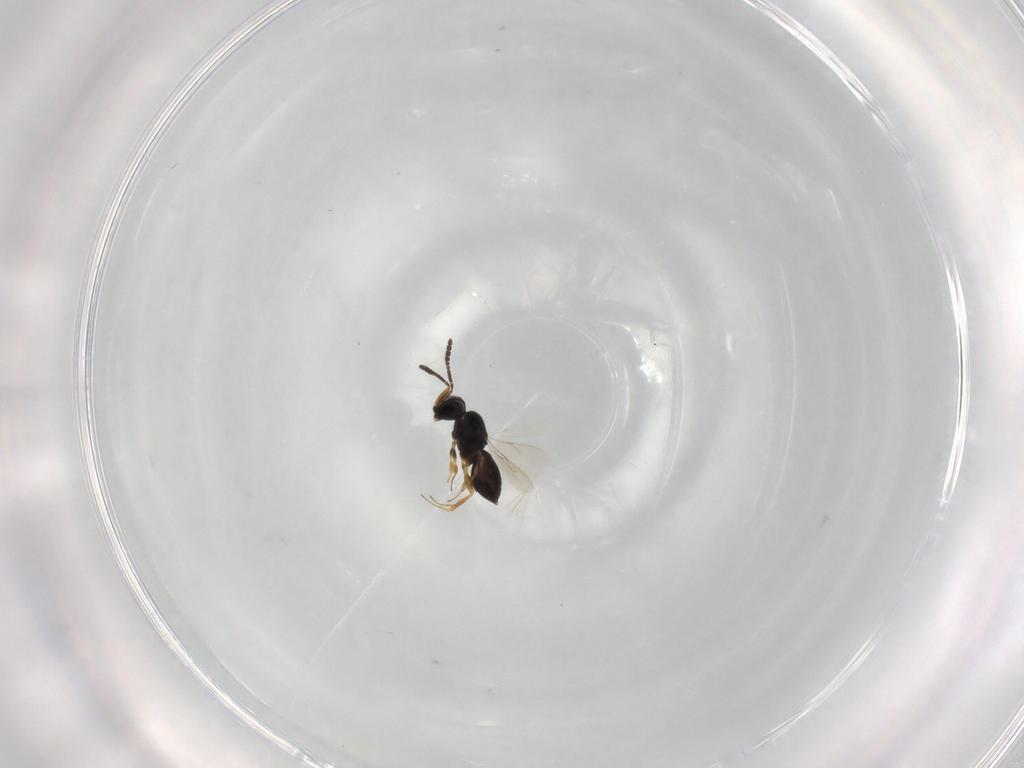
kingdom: Animalia
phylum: Arthropoda
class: Insecta
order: Hymenoptera
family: Scelionidae
